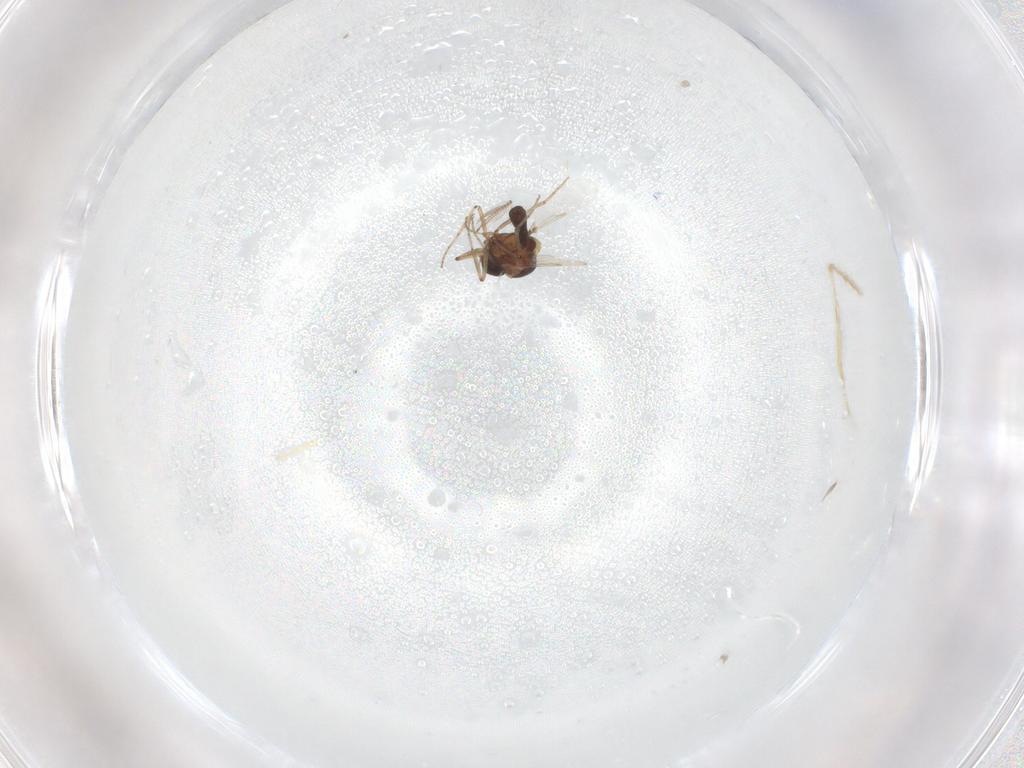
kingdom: Animalia
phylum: Arthropoda
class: Insecta
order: Diptera
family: Ceratopogonidae
